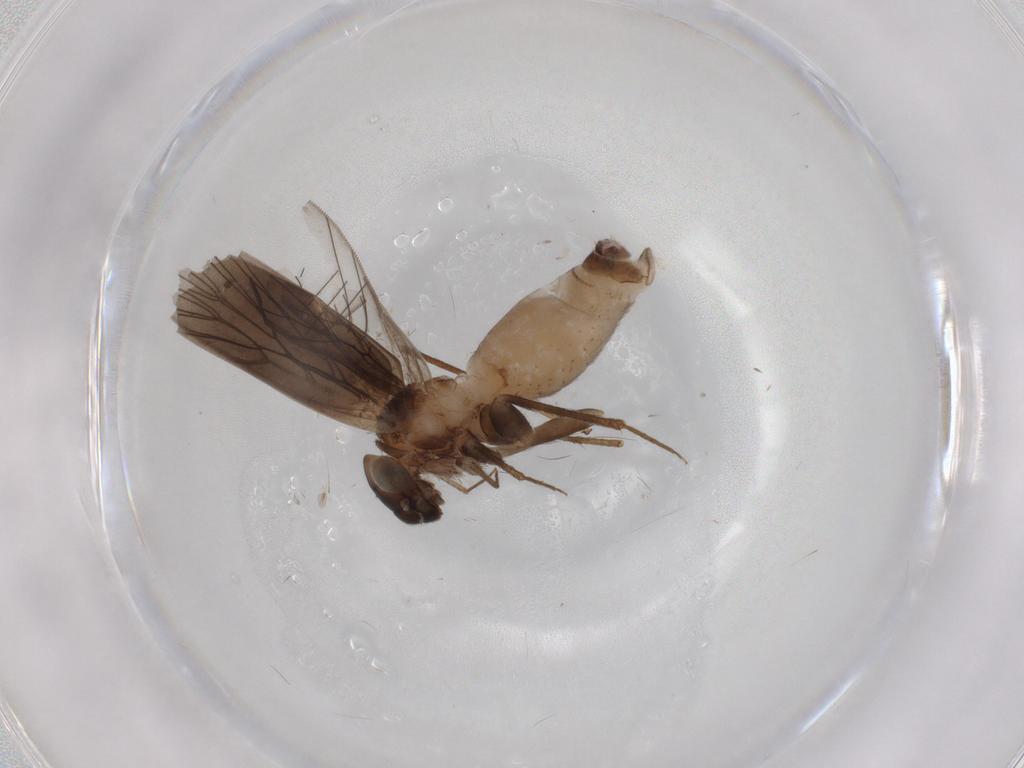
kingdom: Animalia
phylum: Arthropoda
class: Insecta
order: Psocodea
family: Lepidopsocidae
